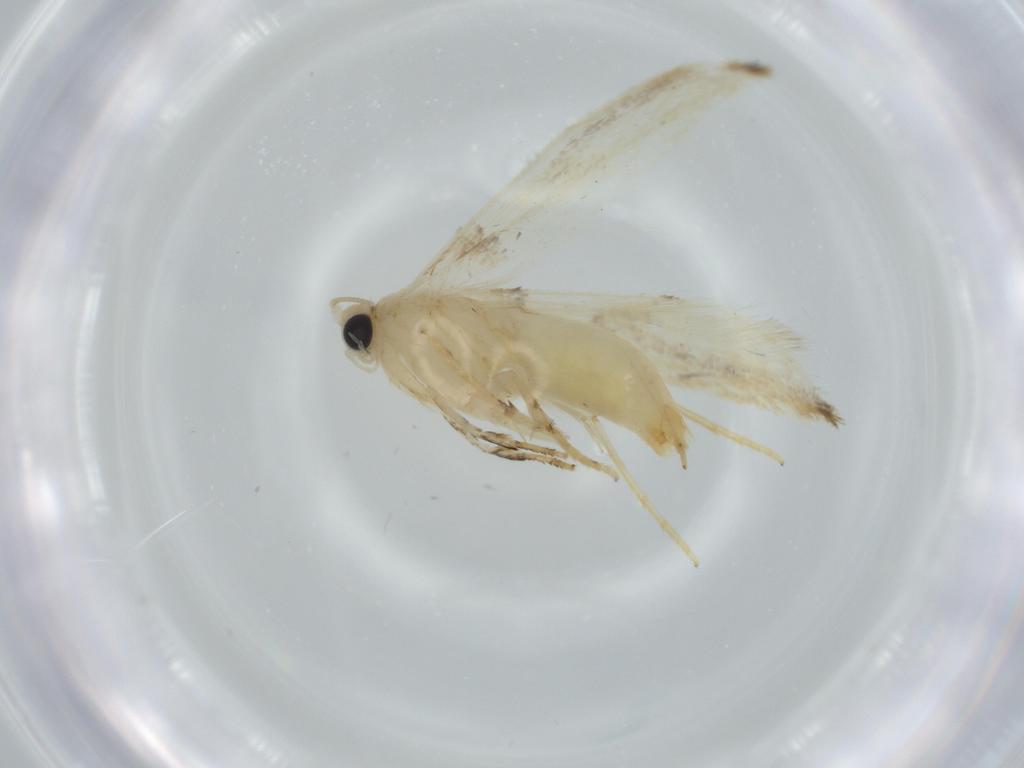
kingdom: Animalia
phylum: Arthropoda
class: Insecta
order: Lepidoptera
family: Tineidae
